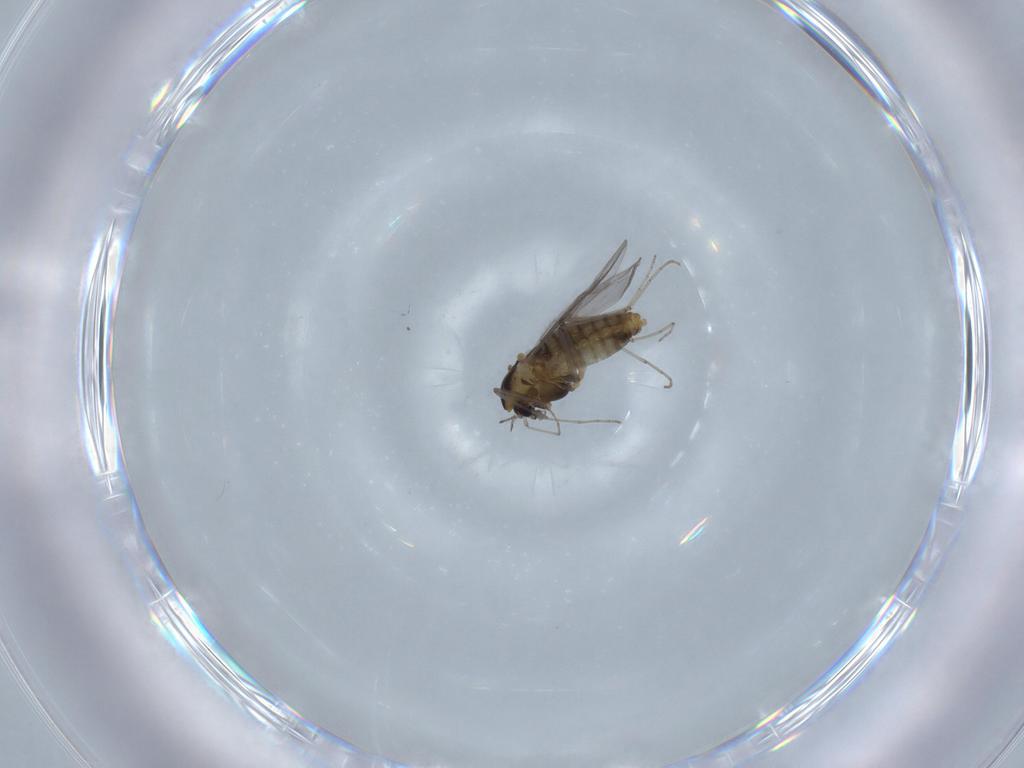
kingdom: Animalia
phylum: Arthropoda
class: Insecta
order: Diptera
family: Chironomidae
